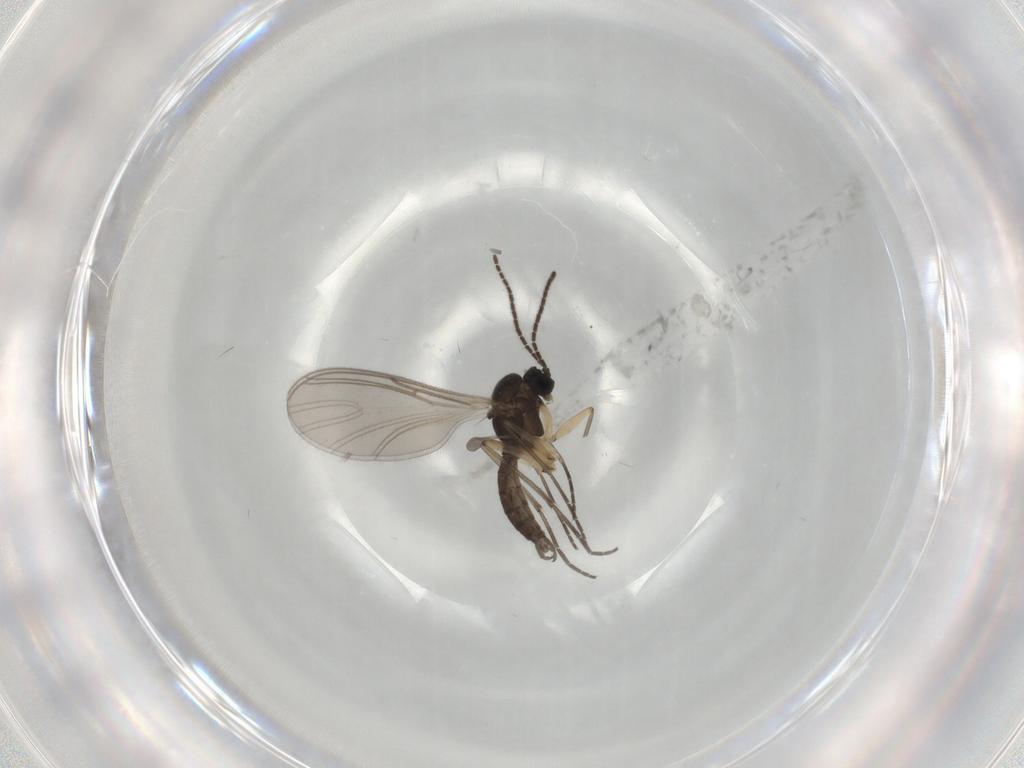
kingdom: Animalia
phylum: Arthropoda
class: Insecta
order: Diptera
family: Sciaridae
